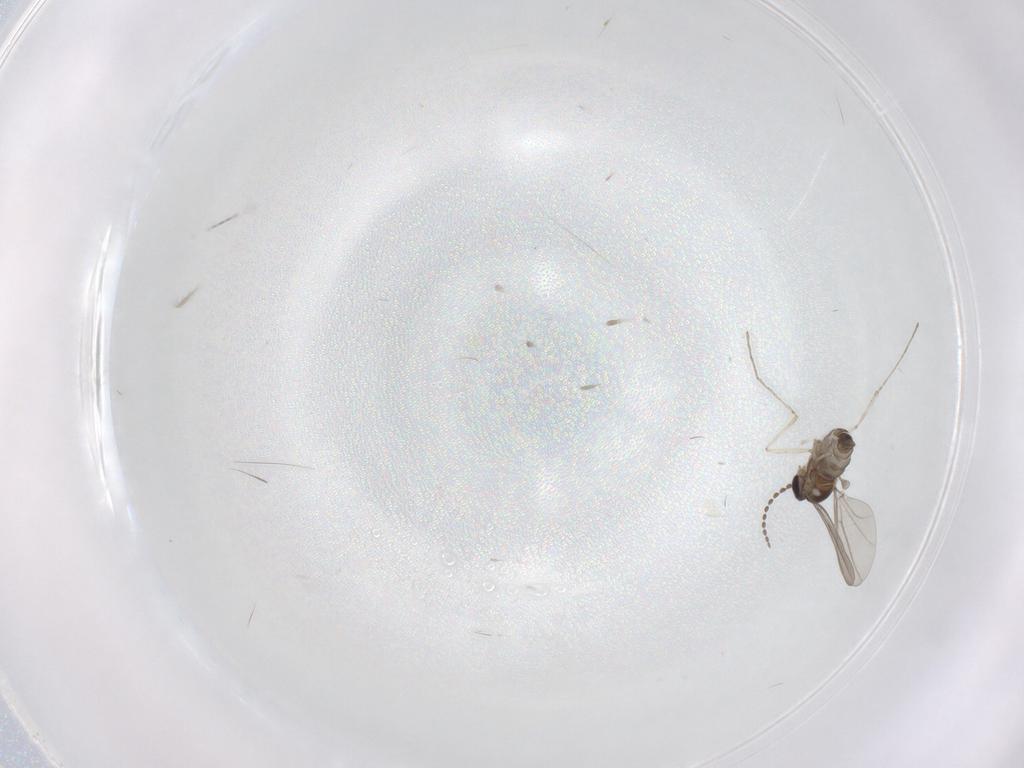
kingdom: Animalia
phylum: Arthropoda
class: Insecta
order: Diptera
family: Cecidomyiidae
